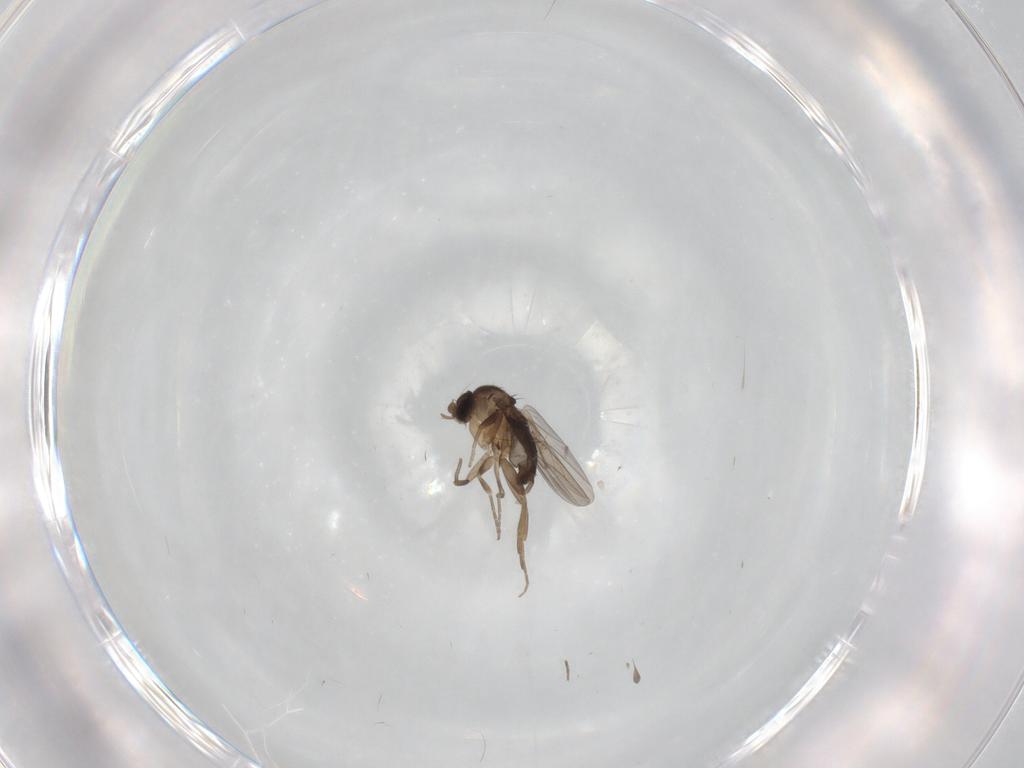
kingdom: Animalia
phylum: Arthropoda
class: Insecta
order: Diptera
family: Phoridae
